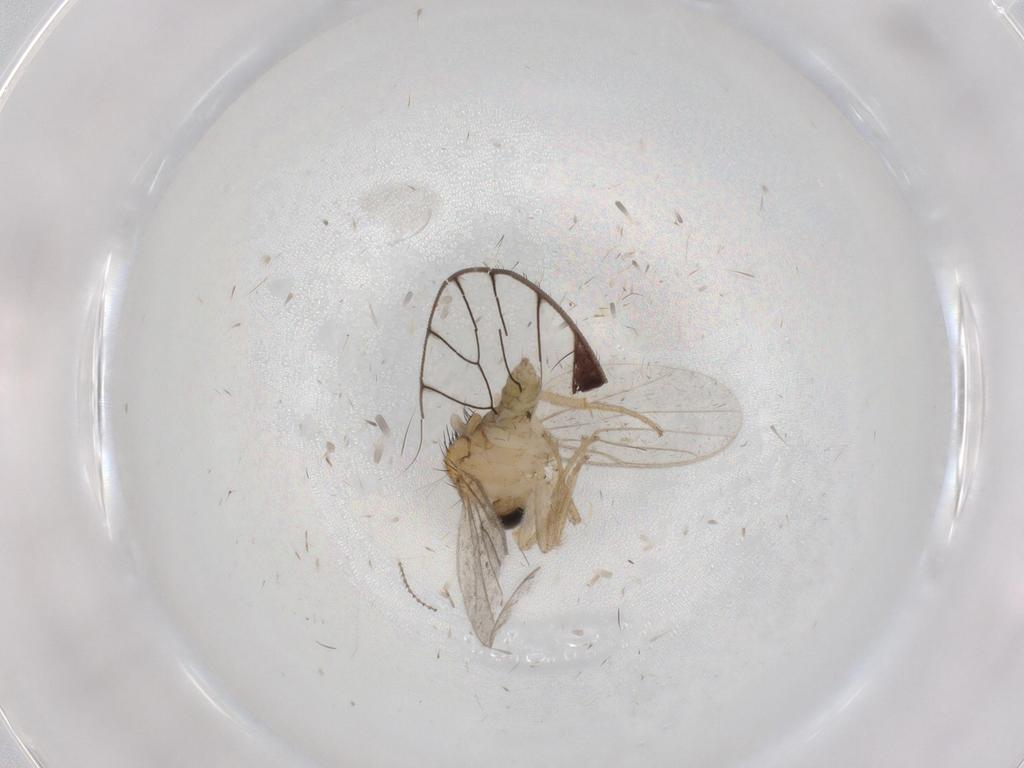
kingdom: Animalia
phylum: Arthropoda
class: Insecta
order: Diptera
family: Hybotidae
